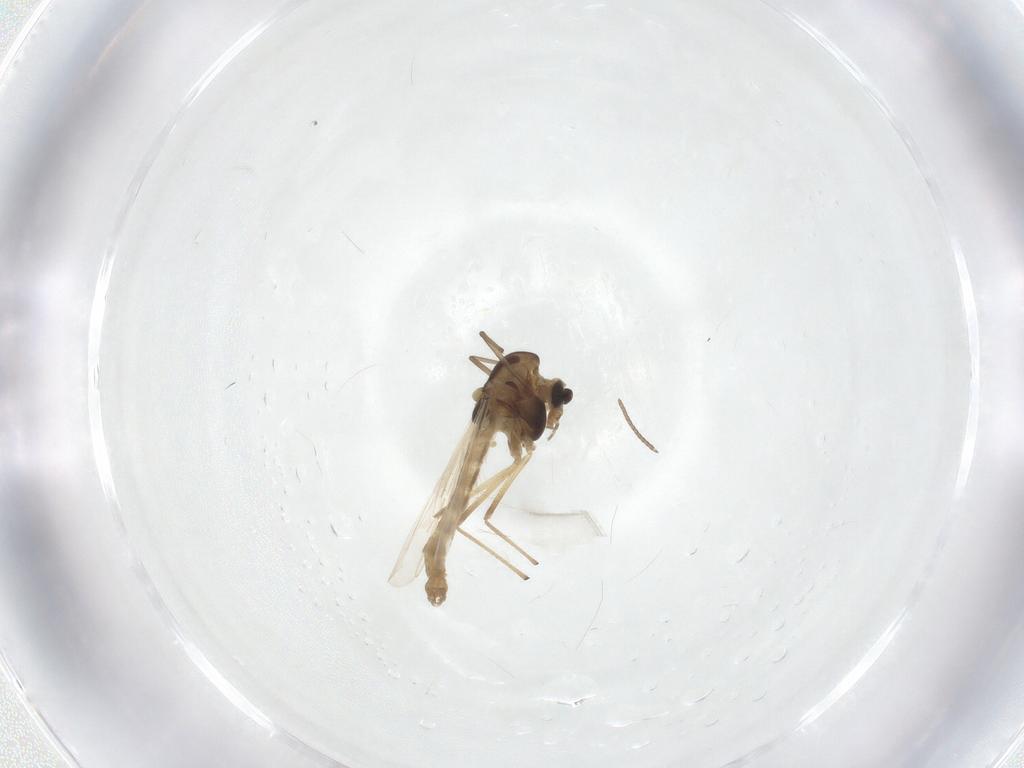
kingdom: Animalia
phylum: Arthropoda
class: Insecta
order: Diptera
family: Chironomidae
